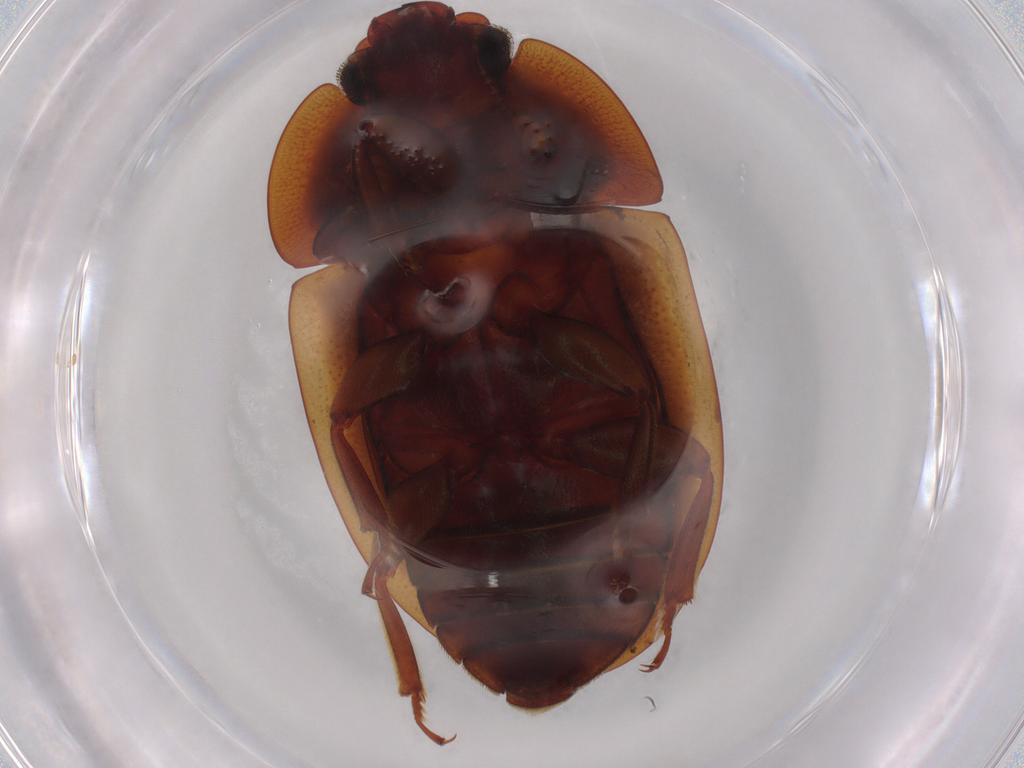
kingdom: Animalia
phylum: Arthropoda
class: Insecta
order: Coleoptera
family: Nitidulidae
